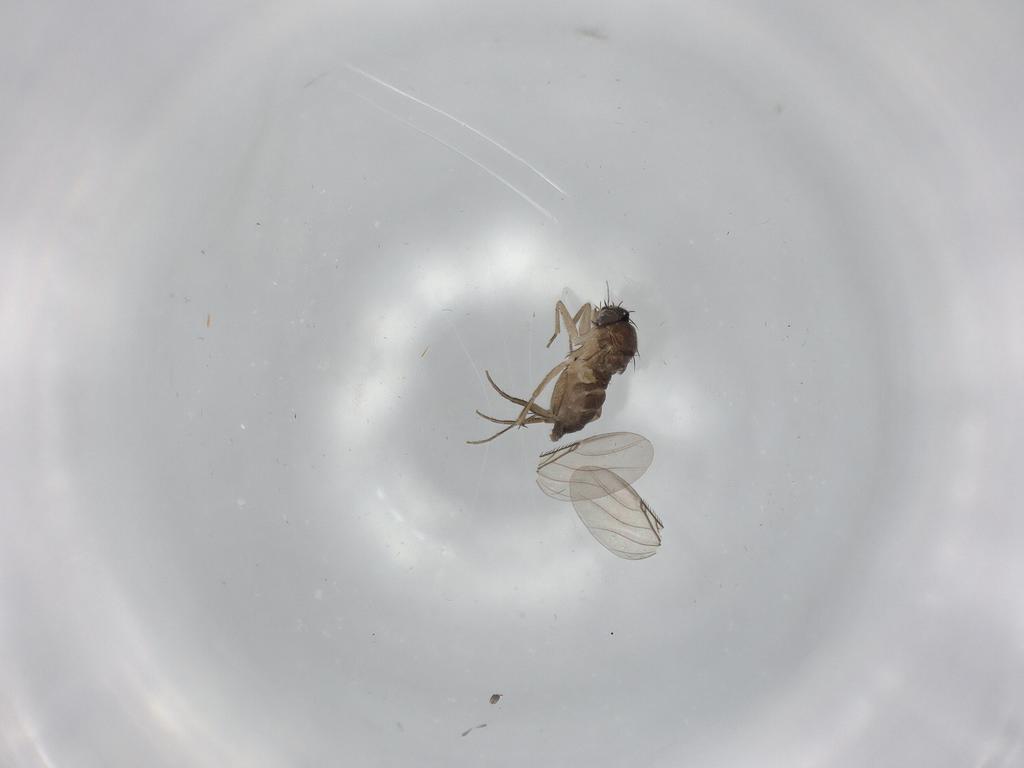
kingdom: Animalia
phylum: Arthropoda
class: Insecta
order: Diptera
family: Phoridae
